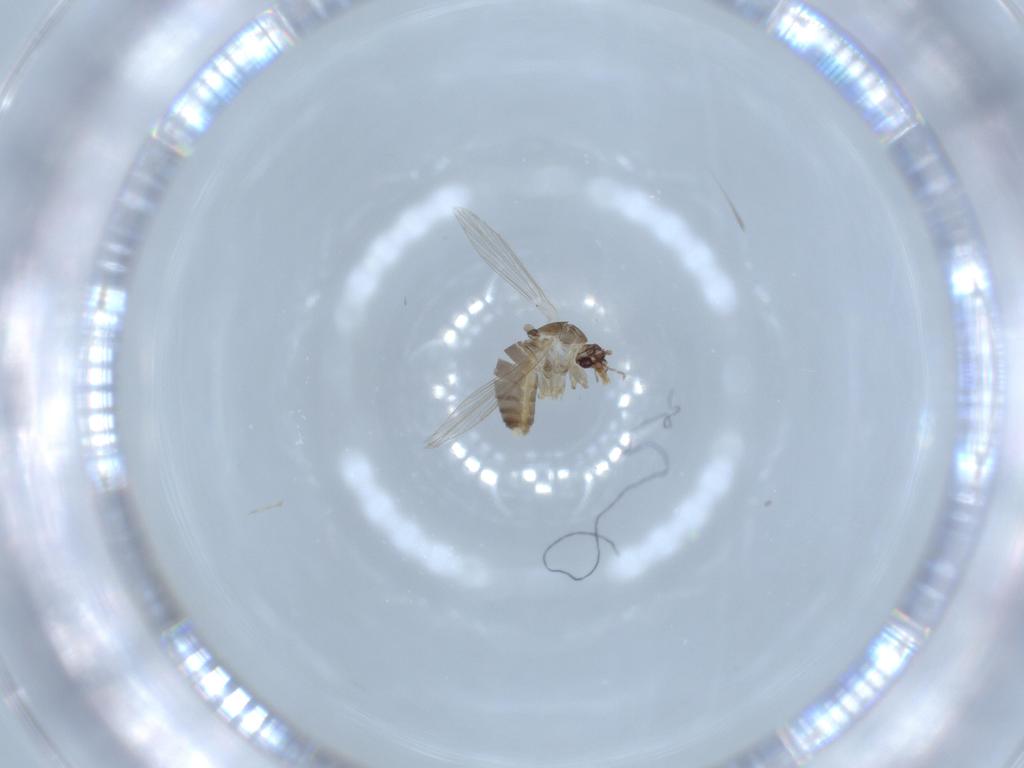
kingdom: Animalia
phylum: Arthropoda
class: Insecta
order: Diptera
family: Psychodidae
